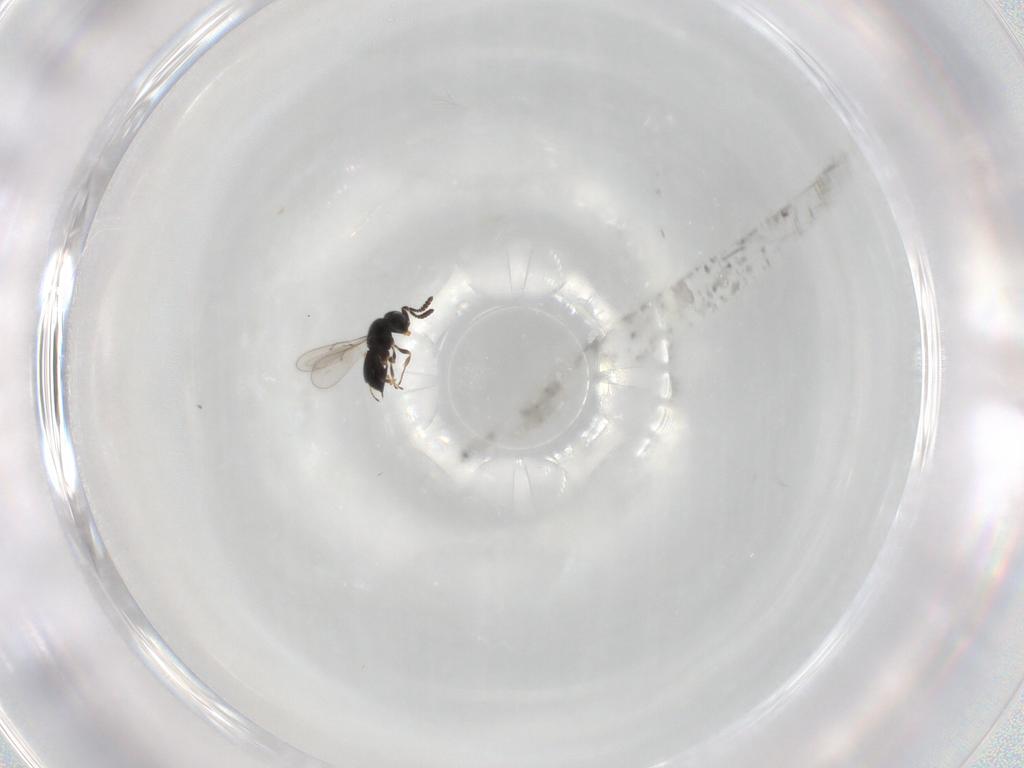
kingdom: Animalia
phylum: Arthropoda
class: Insecta
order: Hymenoptera
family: Scelionidae
